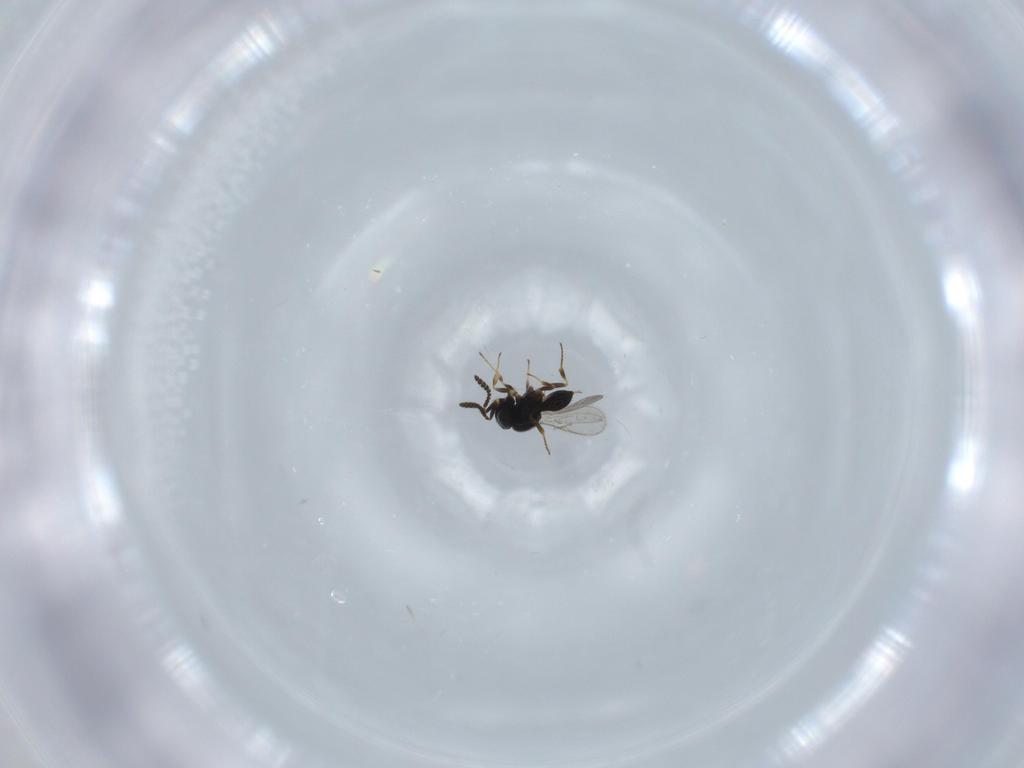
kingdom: Animalia
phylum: Arthropoda
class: Insecta
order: Hymenoptera
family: Scelionidae
